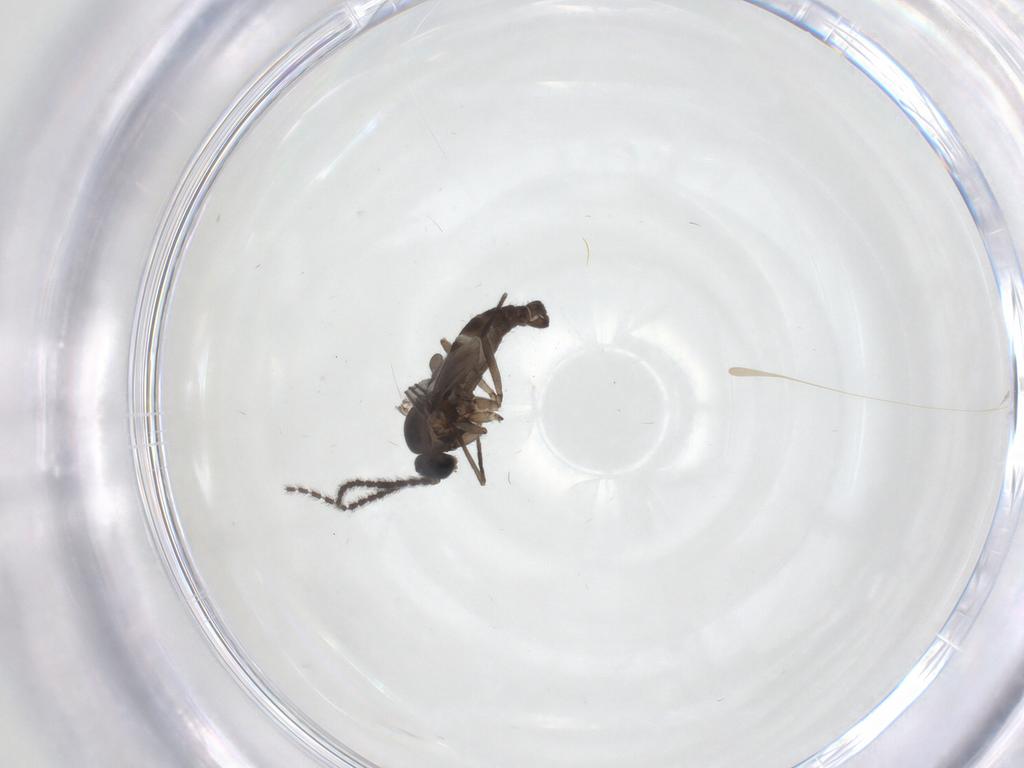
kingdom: Animalia
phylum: Arthropoda
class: Insecta
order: Diptera
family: Sciaridae
